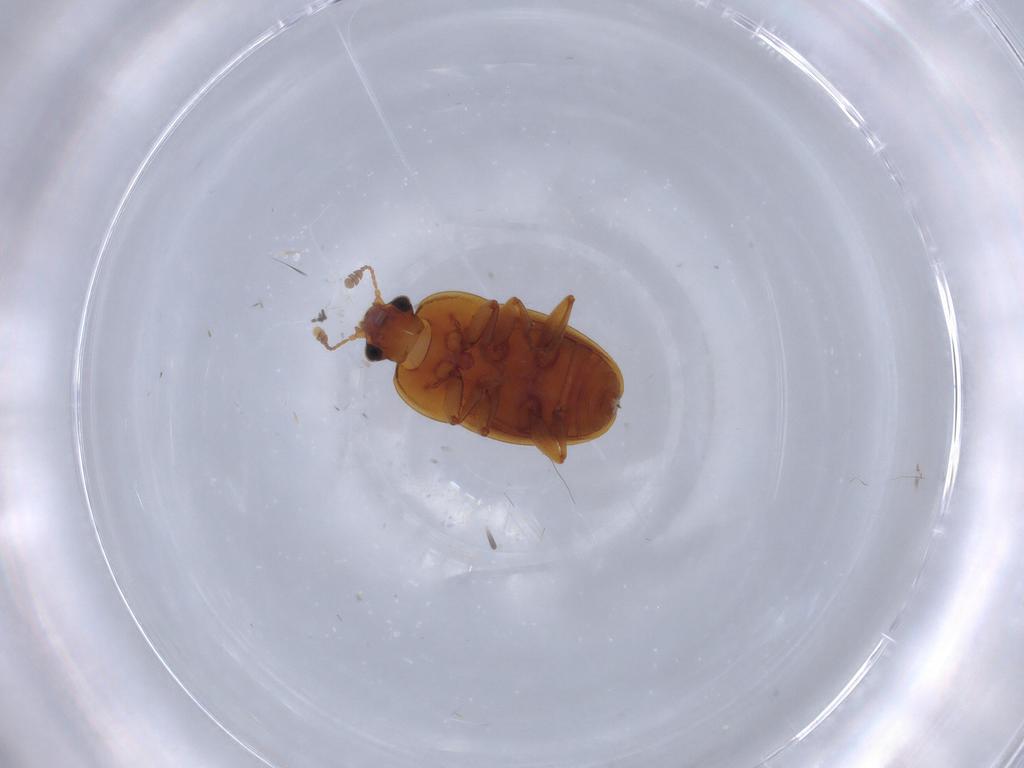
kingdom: Animalia
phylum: Arthropoda
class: Insecta
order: Coleoptera
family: Nitidulidae
